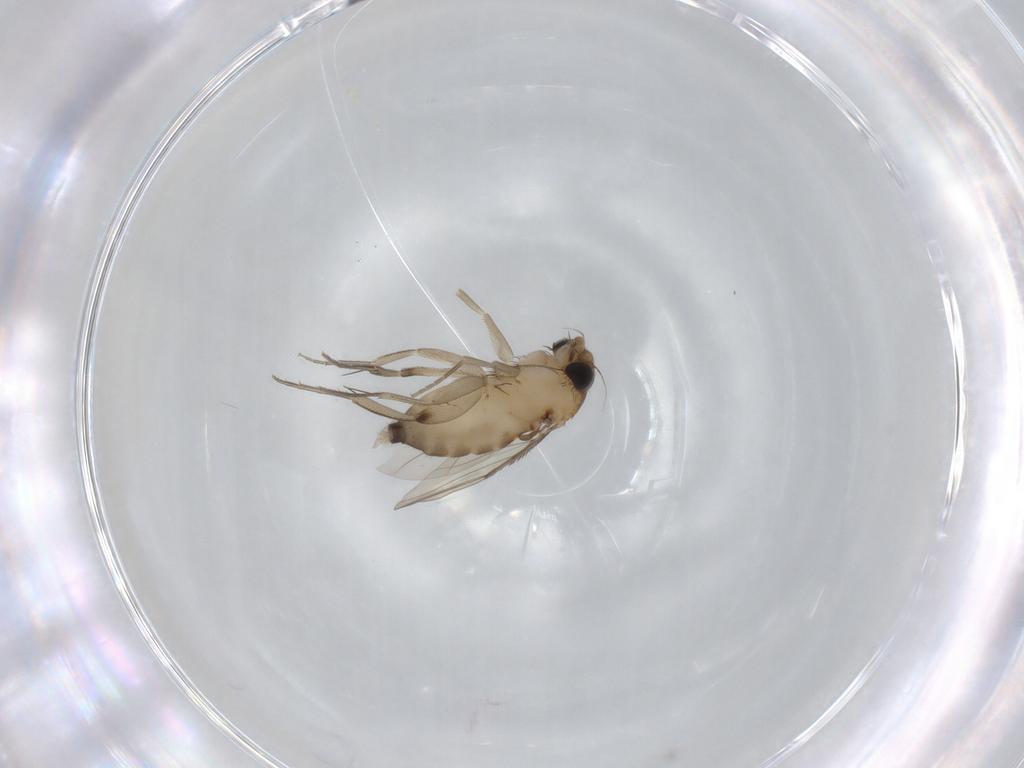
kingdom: Animalia
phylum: Arthropoda
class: Insecta
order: Diptera
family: Phoridae
